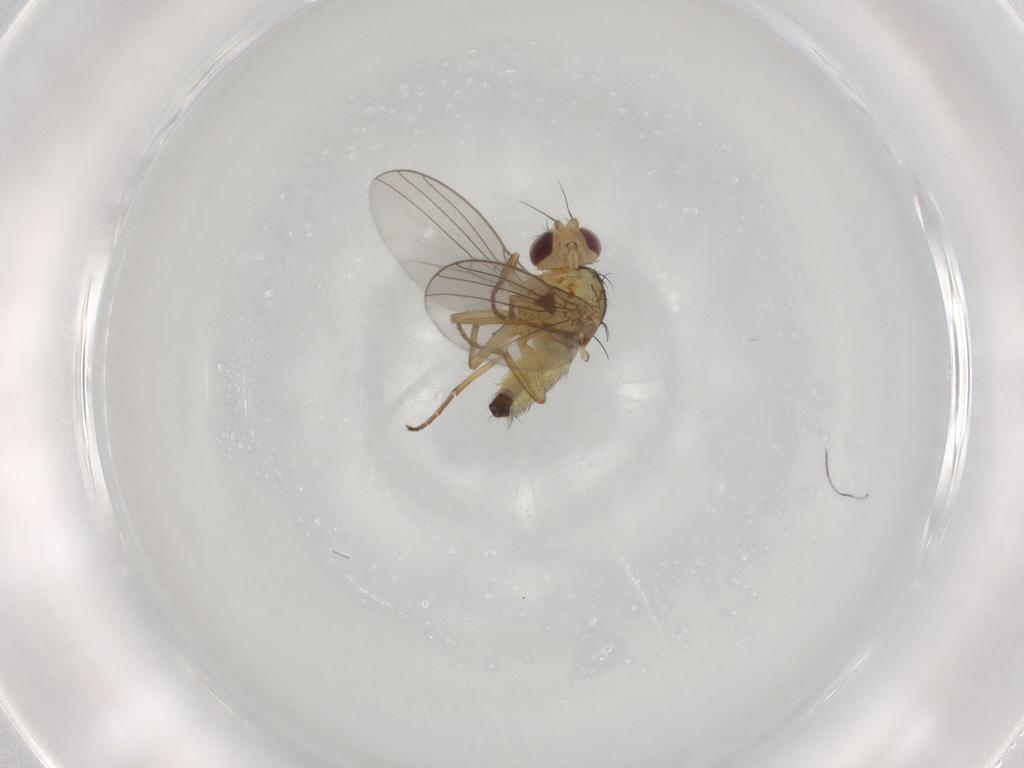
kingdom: Animalia
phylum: Arthropoda
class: Insecta
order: Diptera
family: Agromyzidae
